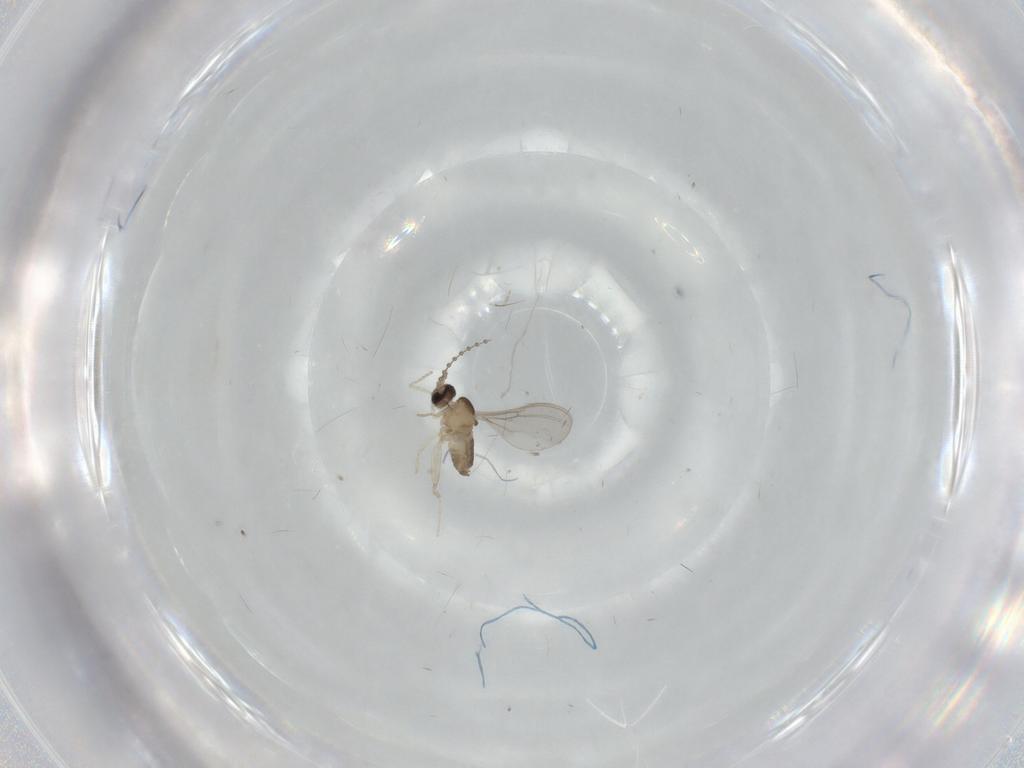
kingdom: Animalia
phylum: Arthropoda
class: Insecta
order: Diptera
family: Cecidomyiidae
